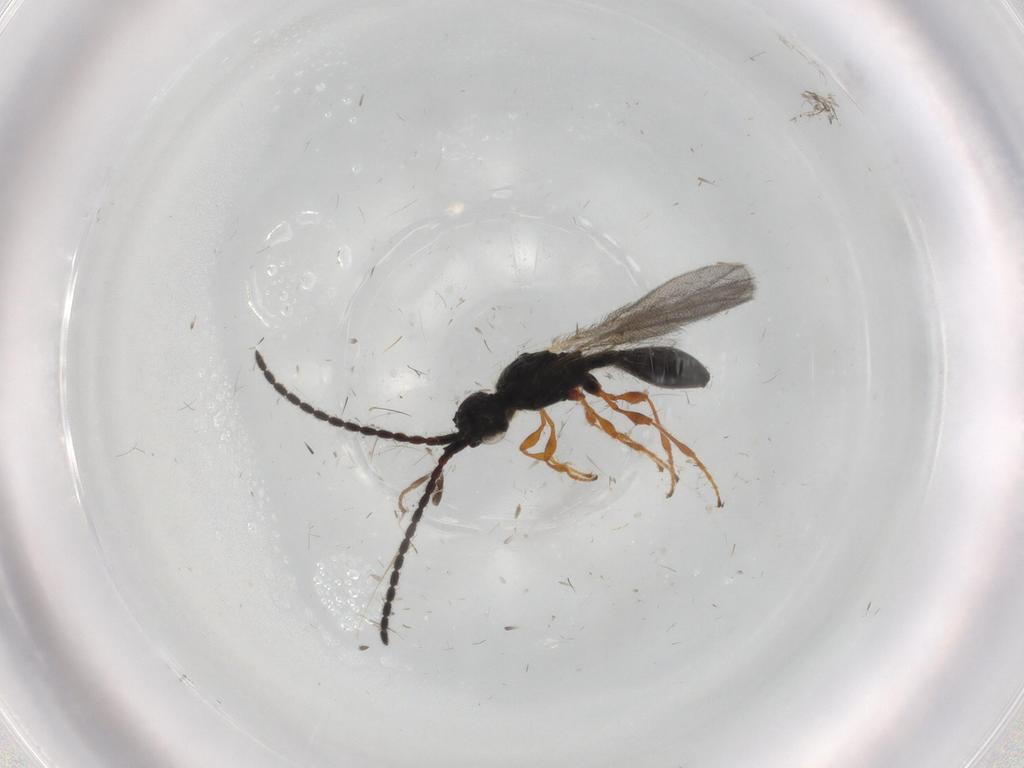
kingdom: Animalia
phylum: Arthropoda
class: Insecta
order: Hymenoptera
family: Diapriidae
